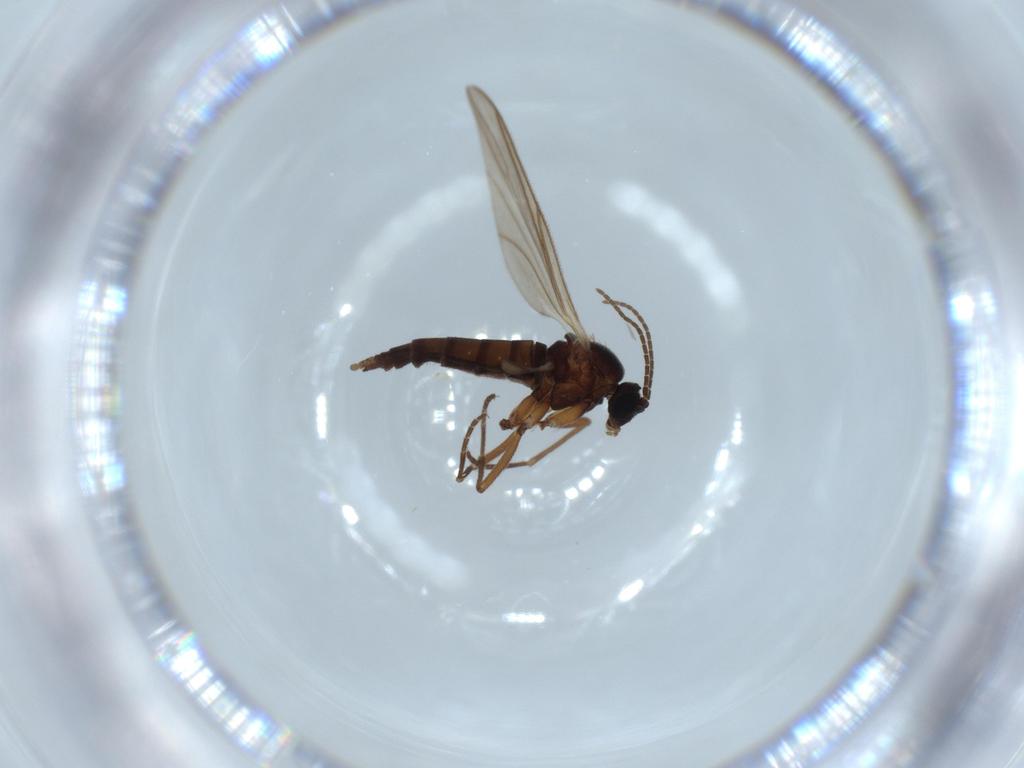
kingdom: Animalia
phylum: Arthropoda
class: Insecta
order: Diptera
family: Sciaridae
